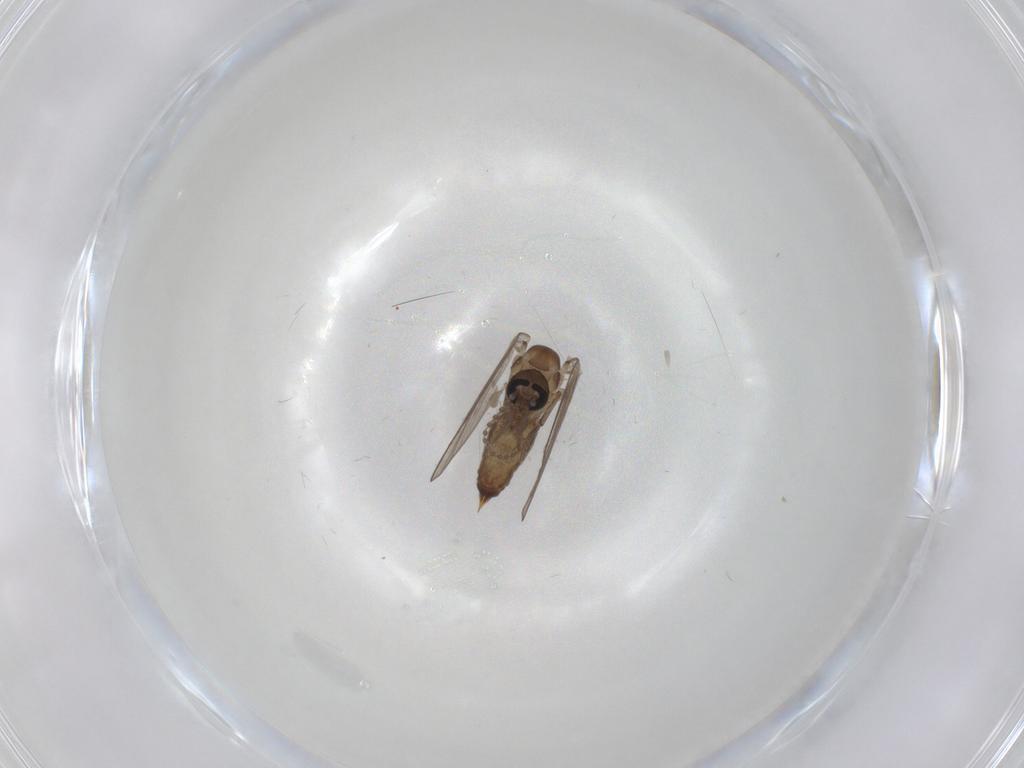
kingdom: Animalia
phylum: Arthropoda
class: Insecta
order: Diptera
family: Psychodidae
